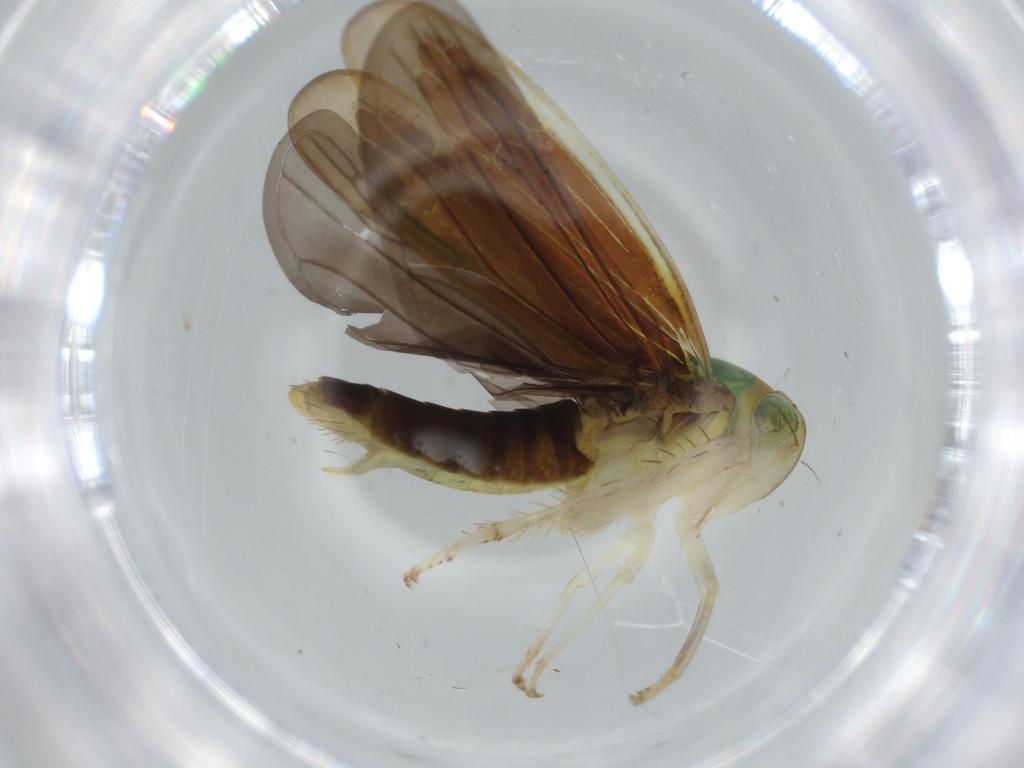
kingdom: Animalia
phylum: Arthropoda
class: Insecta
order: Hemiptera
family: Cicadellidae
